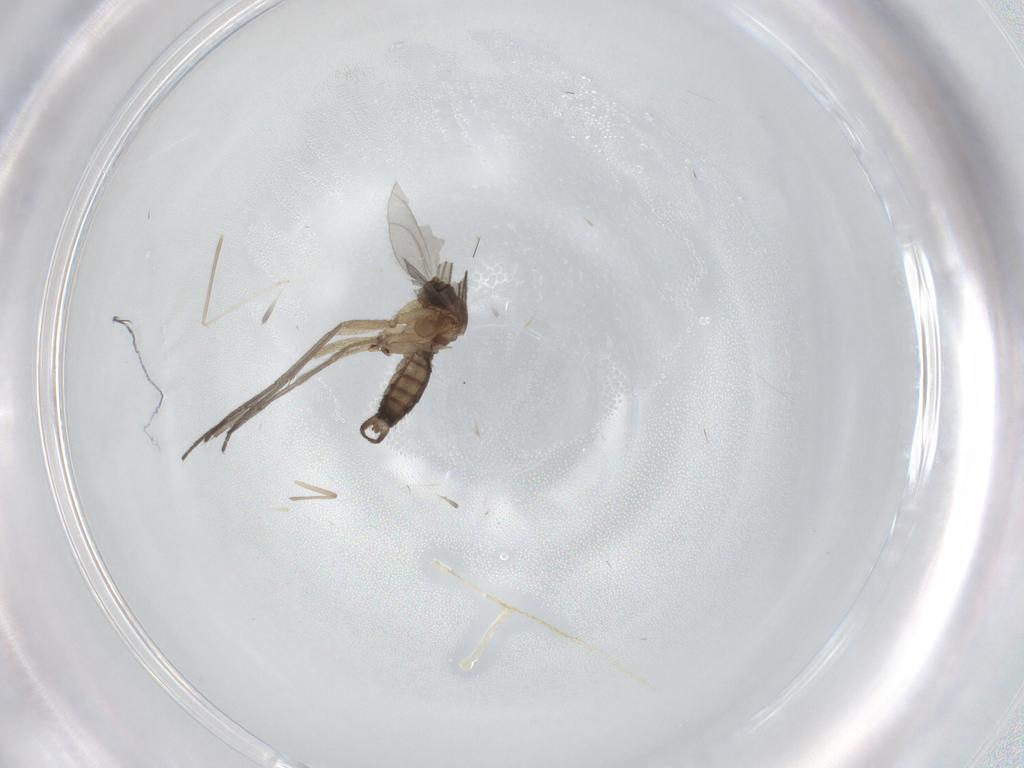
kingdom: Animalia
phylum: Arthropoda
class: Insecta
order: Diptera
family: Sciaridae
